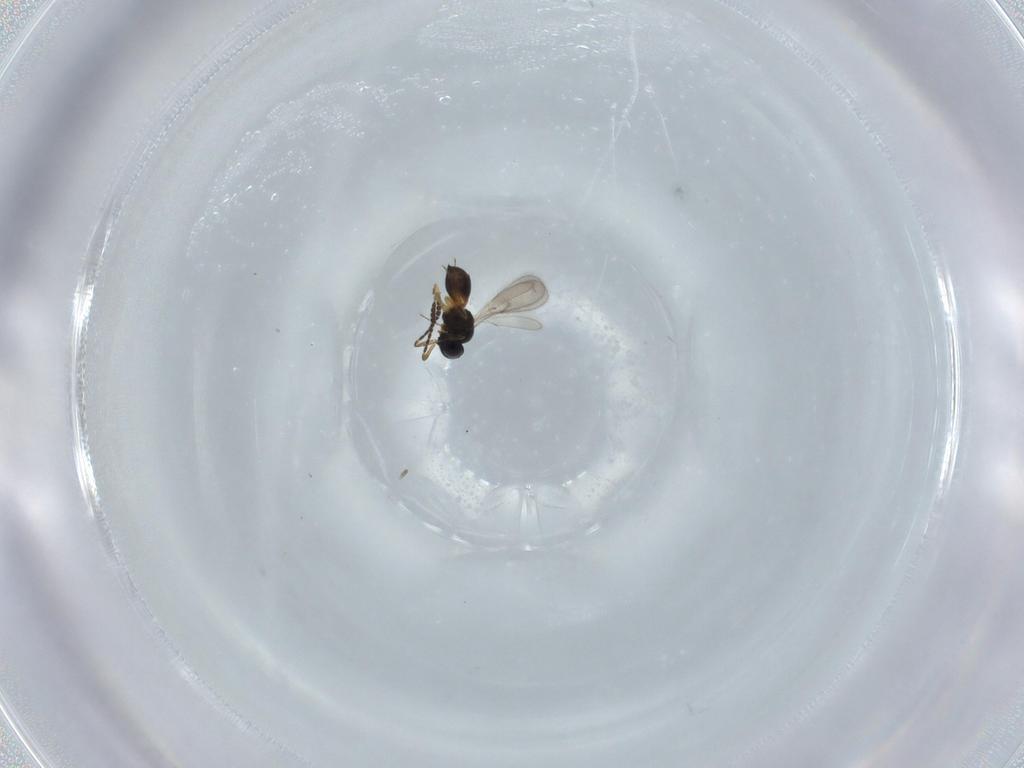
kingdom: Animalia
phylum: Arthropoda
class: Insecta
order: Hymenoptera
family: Scelionidae
